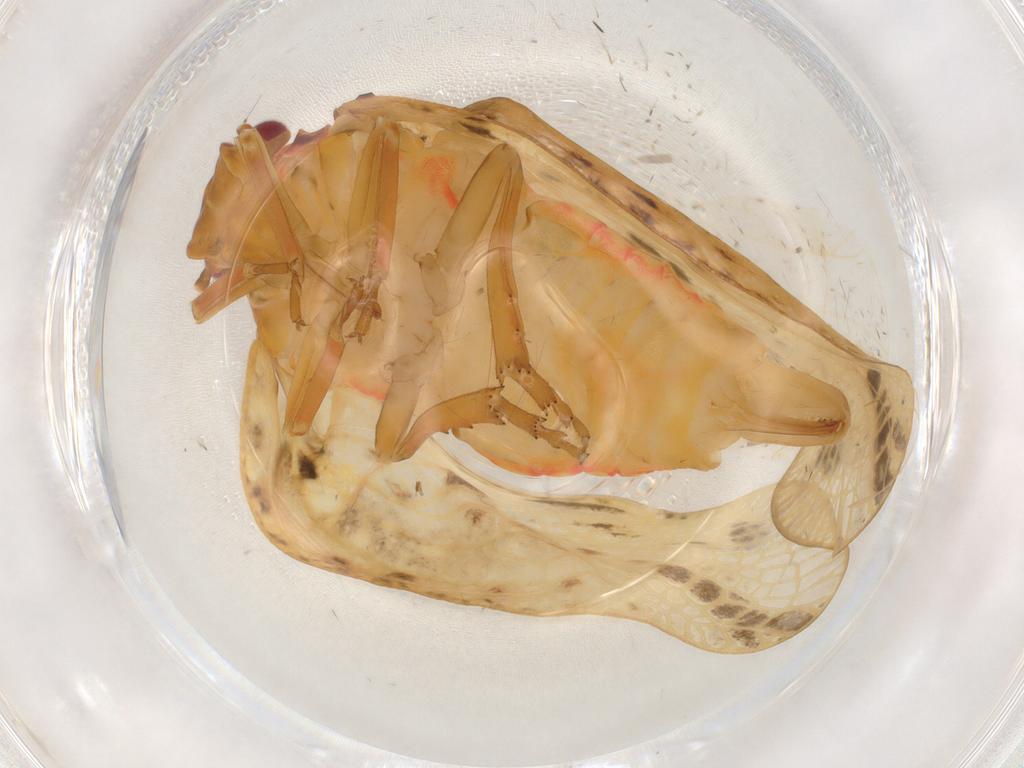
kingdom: Animalia
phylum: Arthropoda
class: Insecta
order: Hemiptera
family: Flatidae
